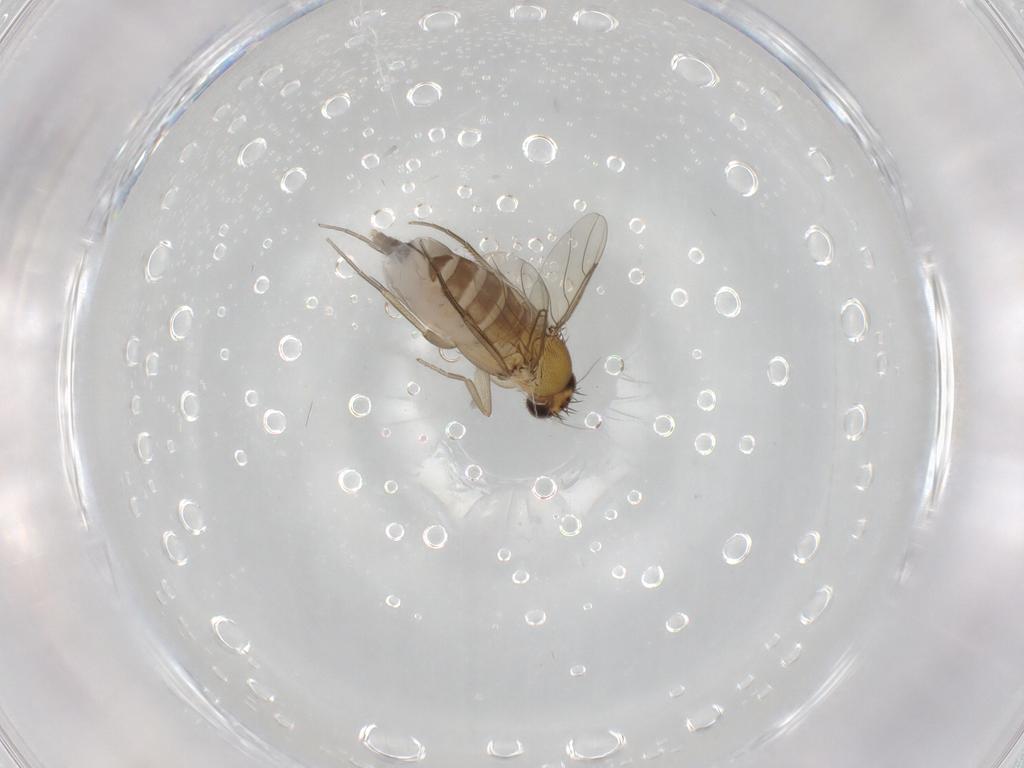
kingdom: Animalia
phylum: Arthropoda
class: Insecta
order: Diptera
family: Phoridae
